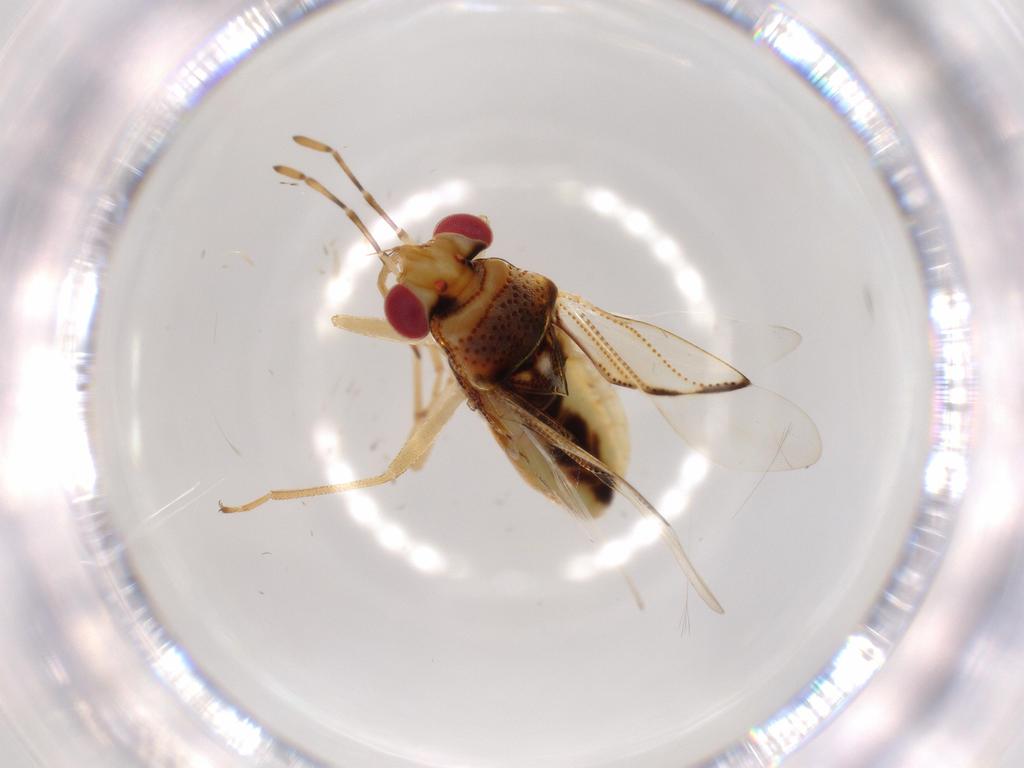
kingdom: Animalia
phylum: Arthropoda
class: Insecta
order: Hemiptera
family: Geocoridae
